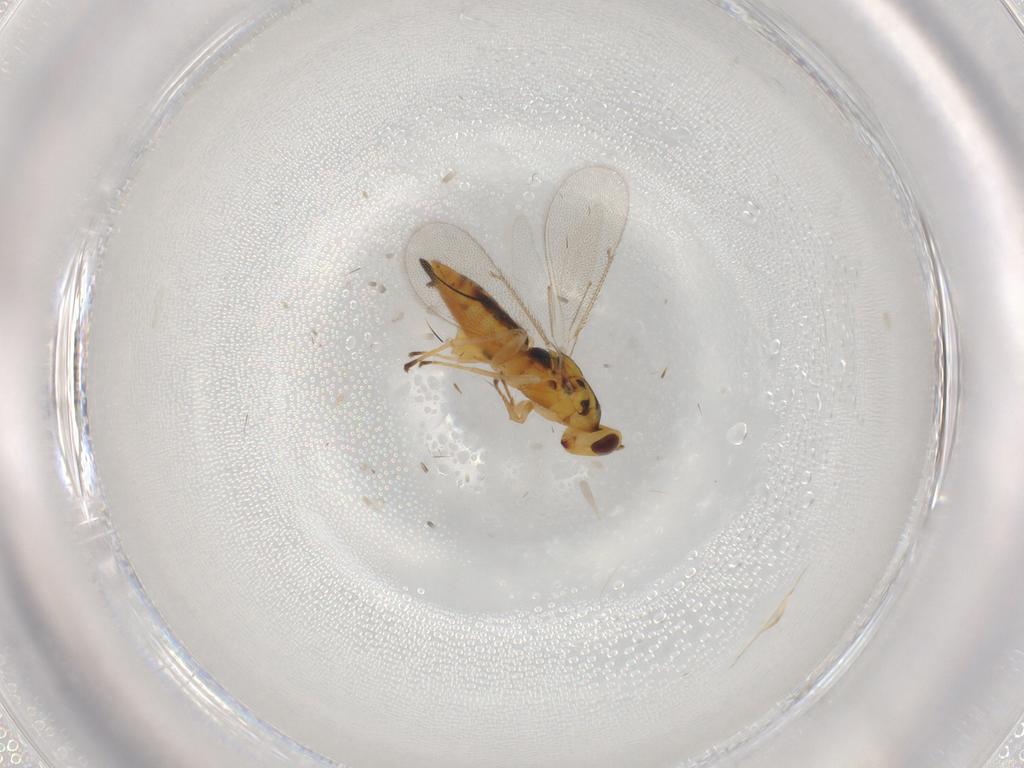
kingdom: Animalia
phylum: Arthropoda
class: Insecta
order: Hymenoptera
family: Eulophidae
